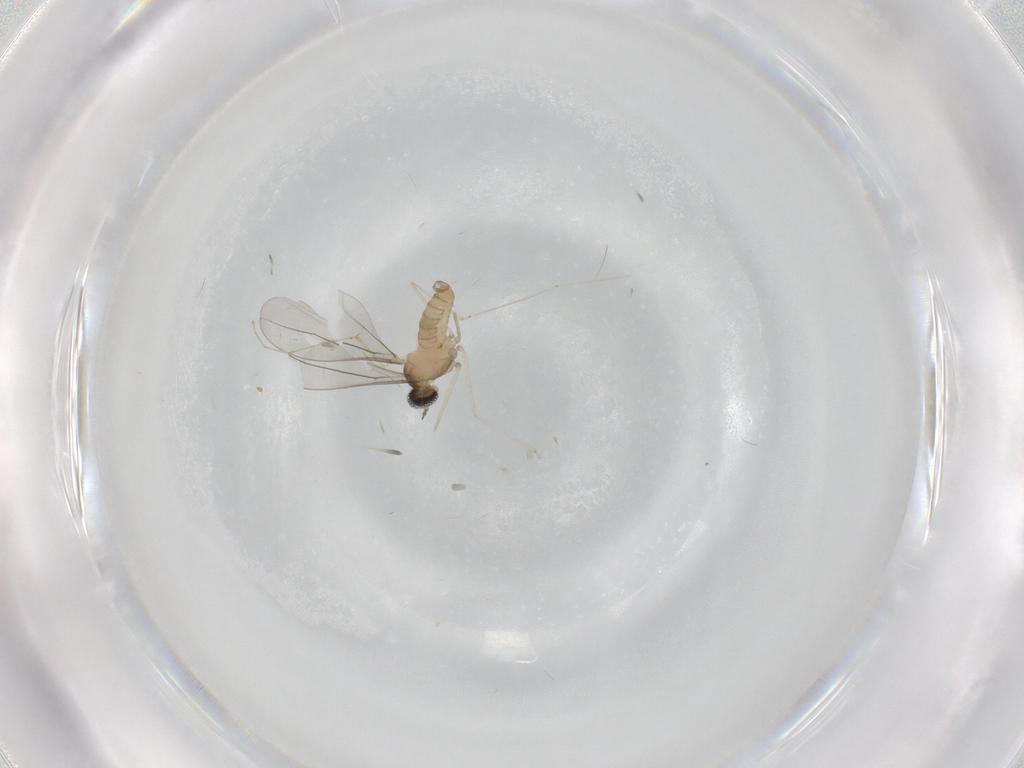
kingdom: Animalia
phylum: Arthropoda
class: Insecta
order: Diptera
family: Cecidomyiidae
